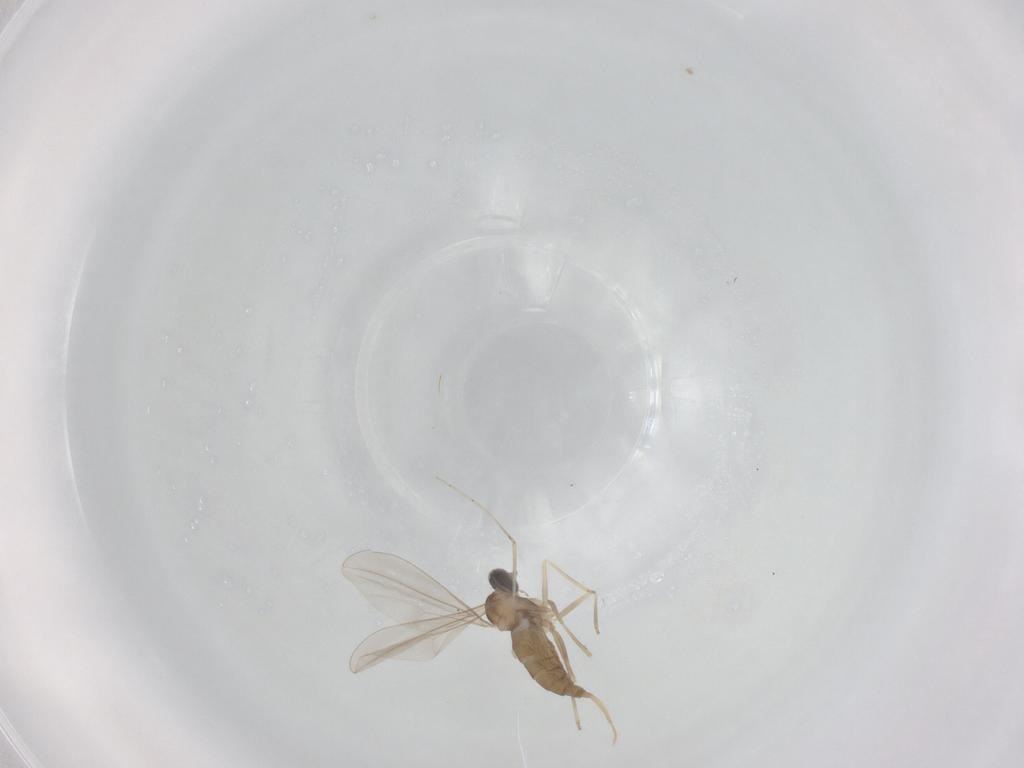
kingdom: Animalia
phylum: Arthropoda
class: Insecta
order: Diptera
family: Cecidomyiidae
